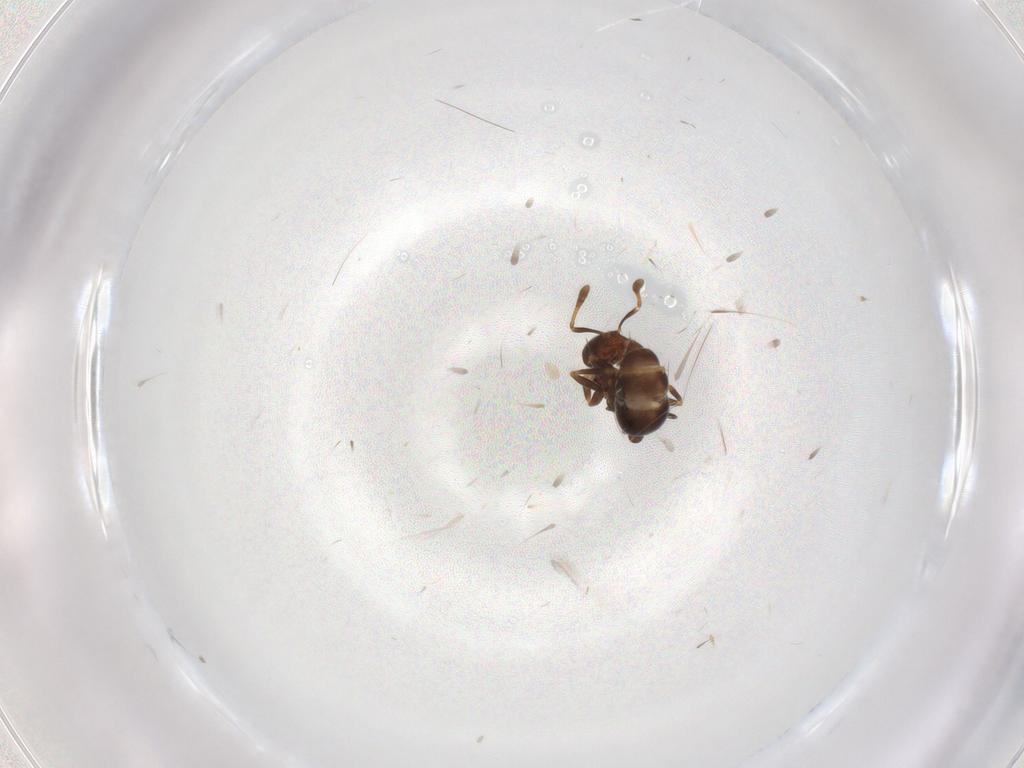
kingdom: Animalia
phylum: Arthropoda
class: Insecta
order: Diptera
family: Sciaridae
